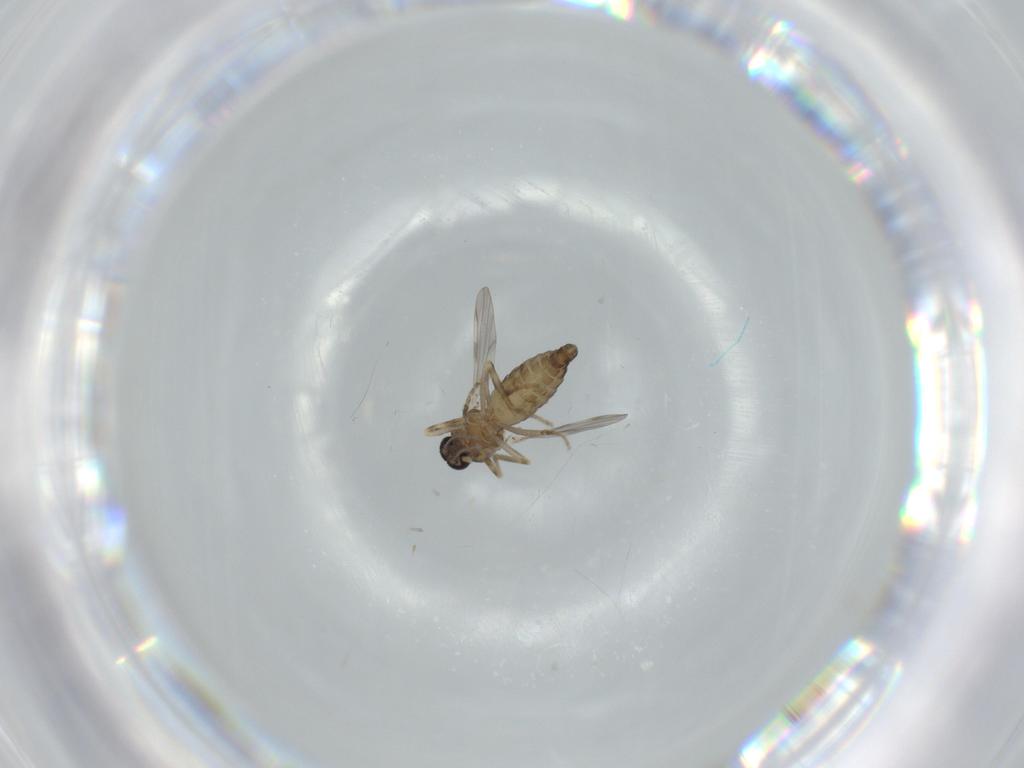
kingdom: Animalia
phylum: Arthropoda
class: Insecta
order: Diptera
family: Ceratopogonidae
